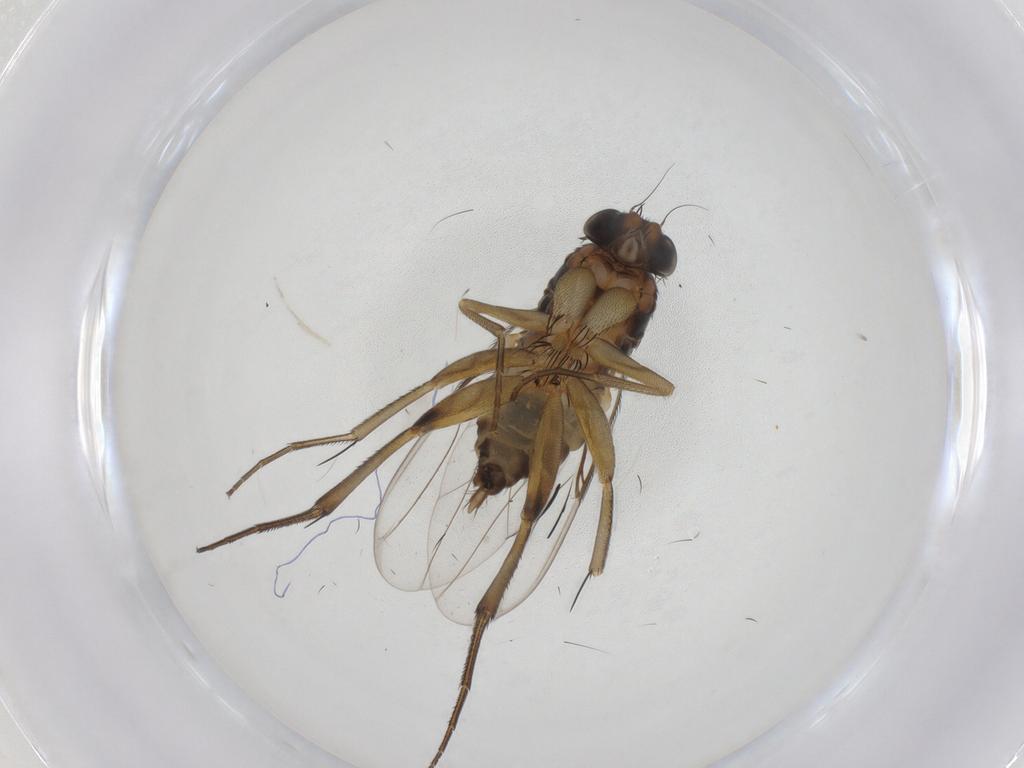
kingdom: Animalia
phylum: Arthropoda
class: Insecta
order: Diptera
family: Phoridae
